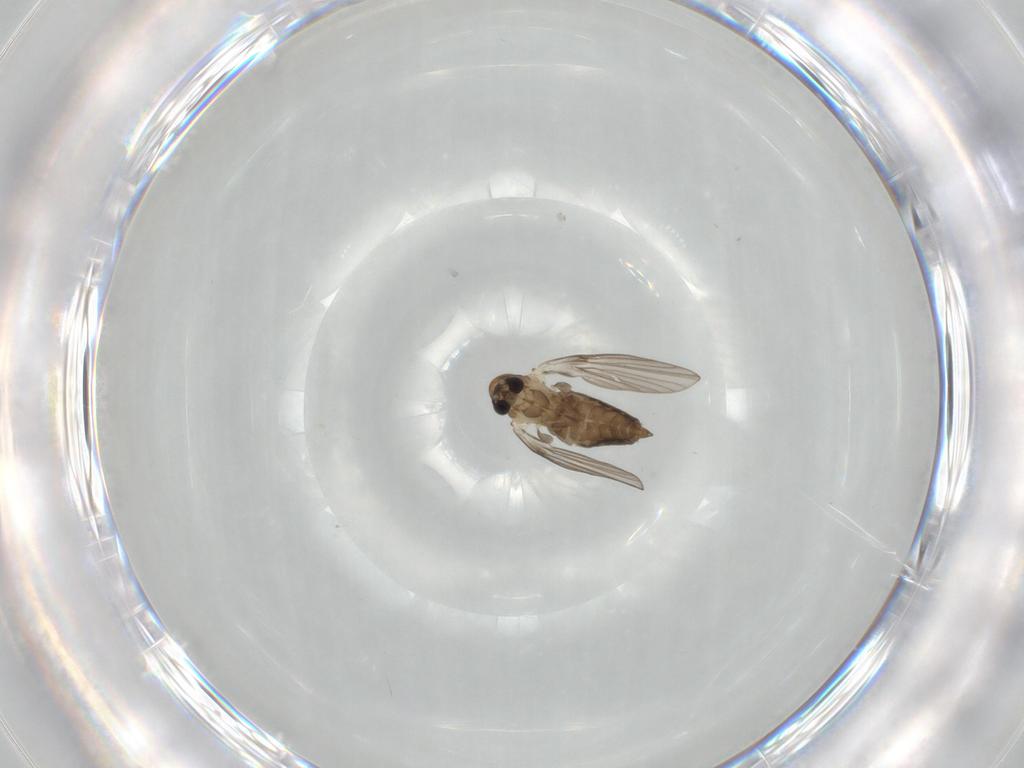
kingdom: Animalia
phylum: Arthropoda
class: Insecta
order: Diptera
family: Psychodidae
